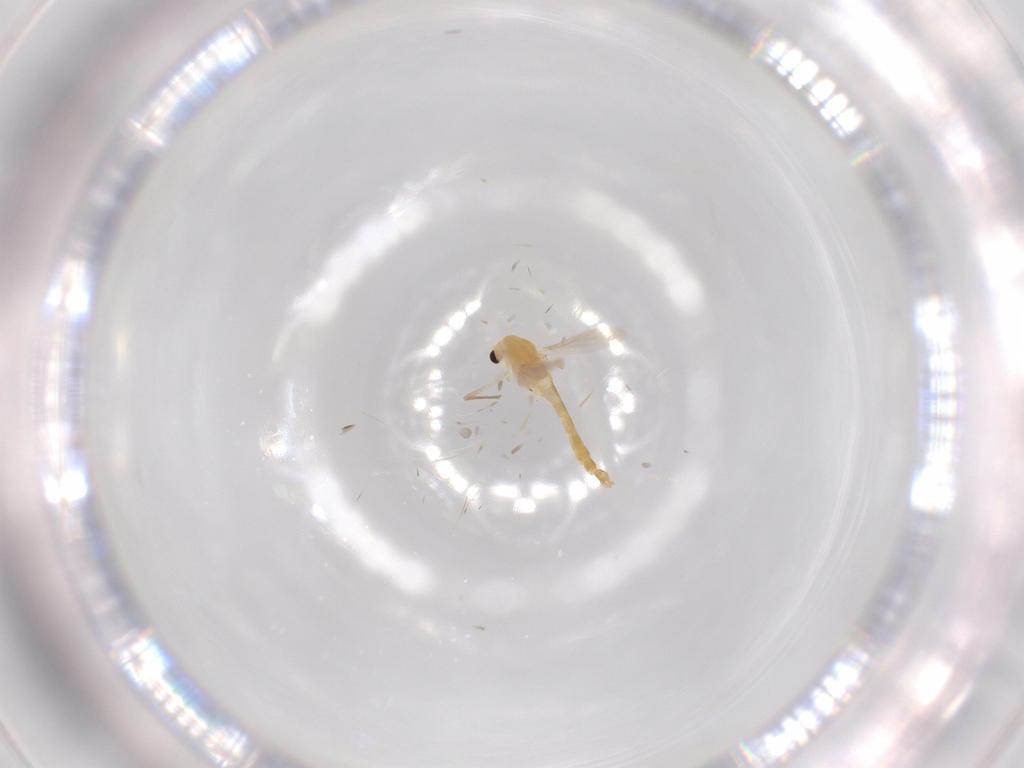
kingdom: Animalia
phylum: Arthropoda
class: Insecta
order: Diptera
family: Chironomidae
